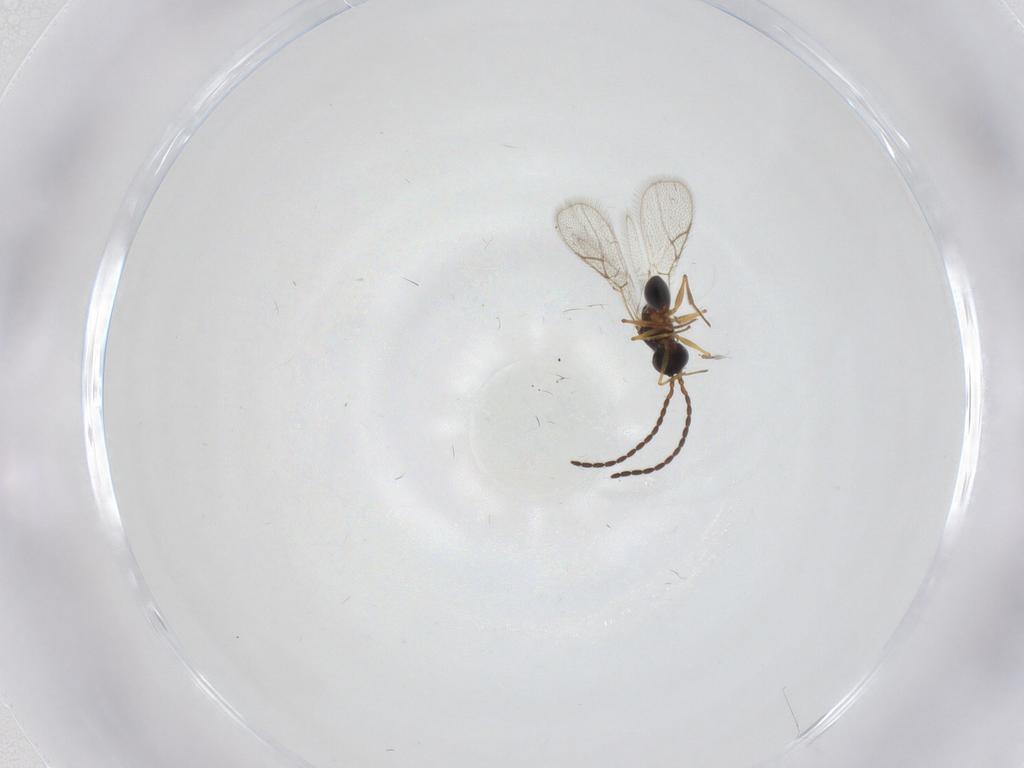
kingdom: Animalia
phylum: Arthropoda
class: Insecta
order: Hymenoptera
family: Figitidae
